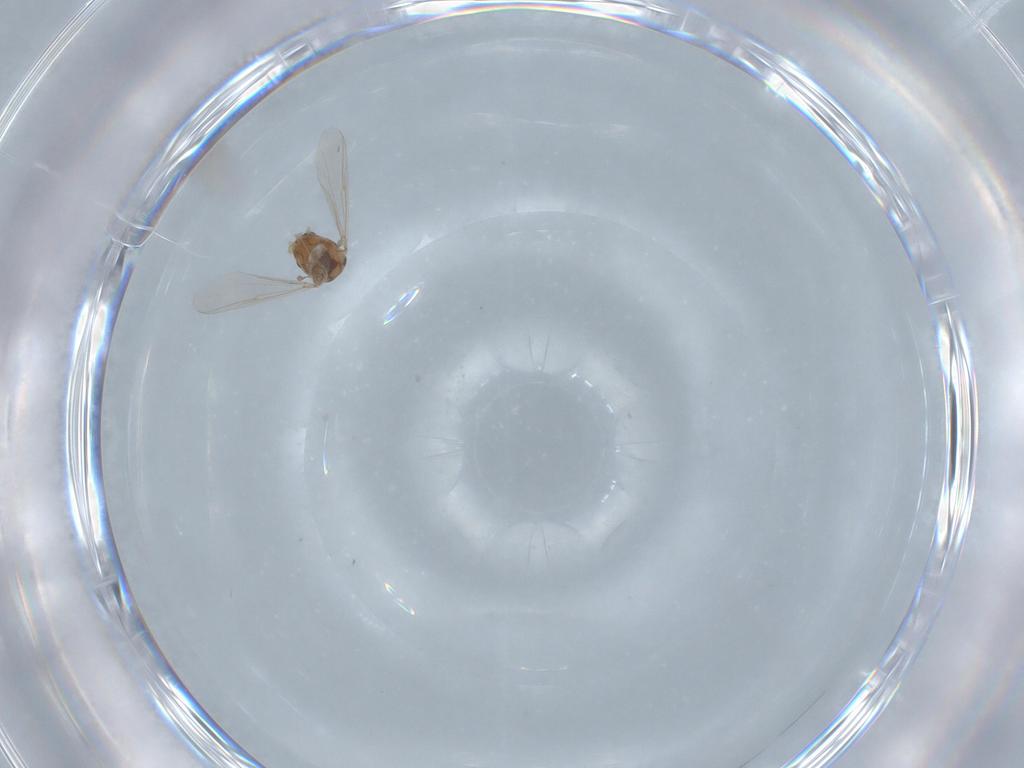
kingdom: Animalia
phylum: Arthropoda
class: Insecta
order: Diptera
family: Chironomidae
